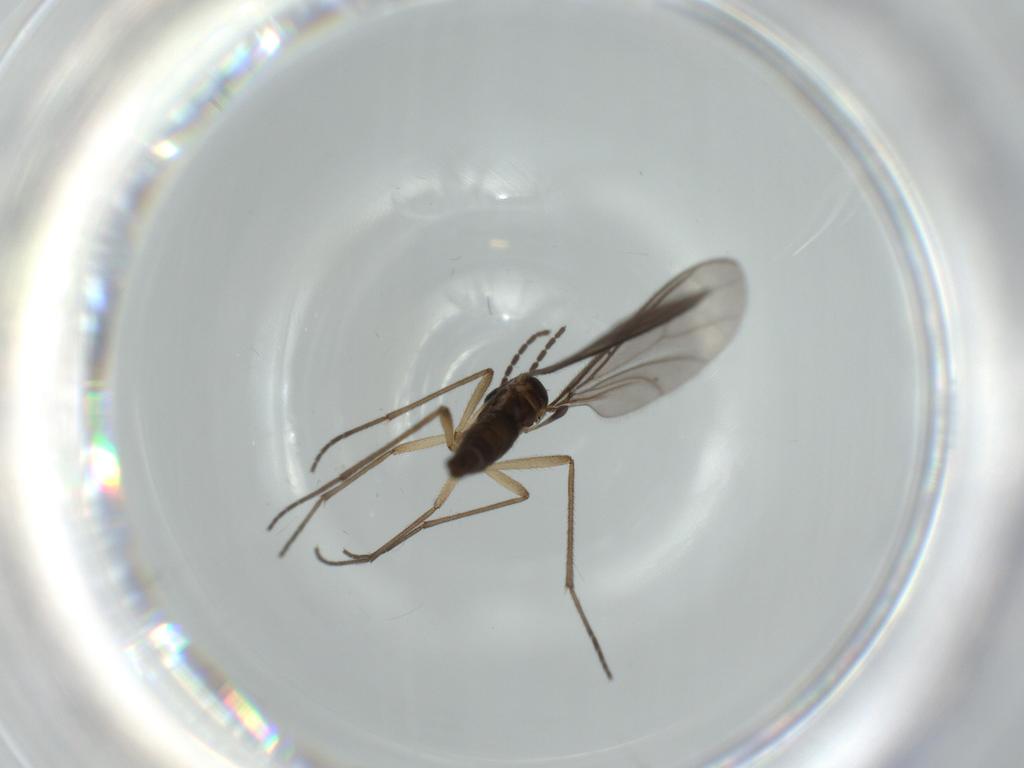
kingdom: Animalia
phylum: Arthropoda
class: Insecta
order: Diptera
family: Sciaridae
